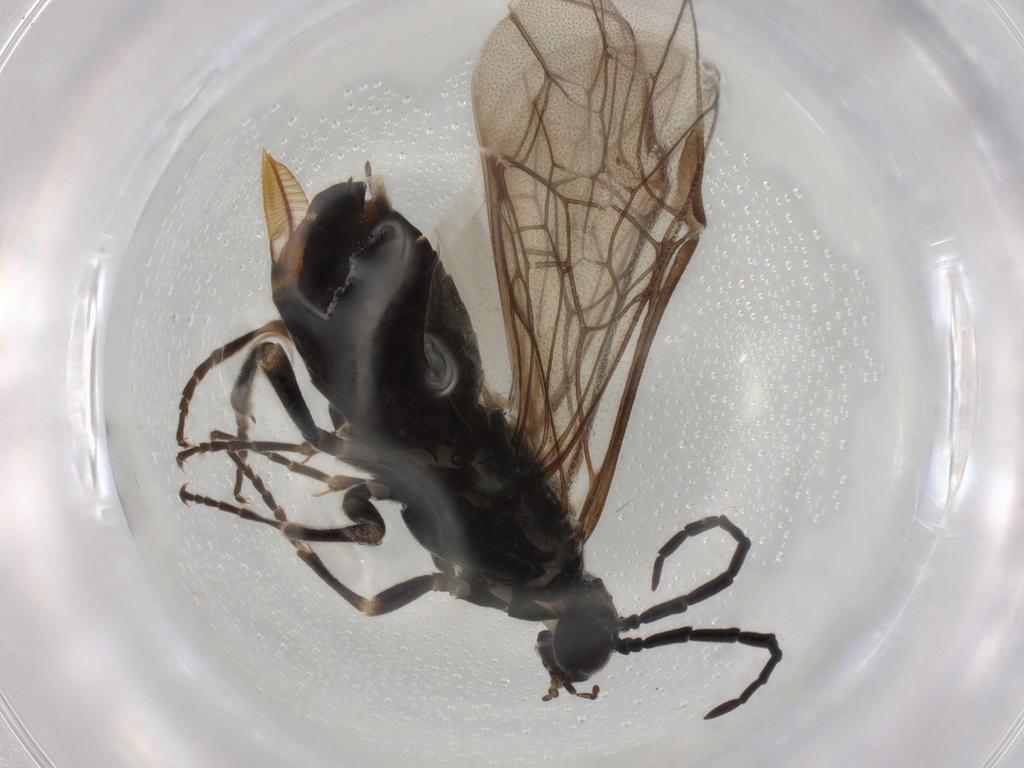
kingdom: Animalia
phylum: Arthropoda
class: Insecta
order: Hymenoptera
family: Tenthredinidae
